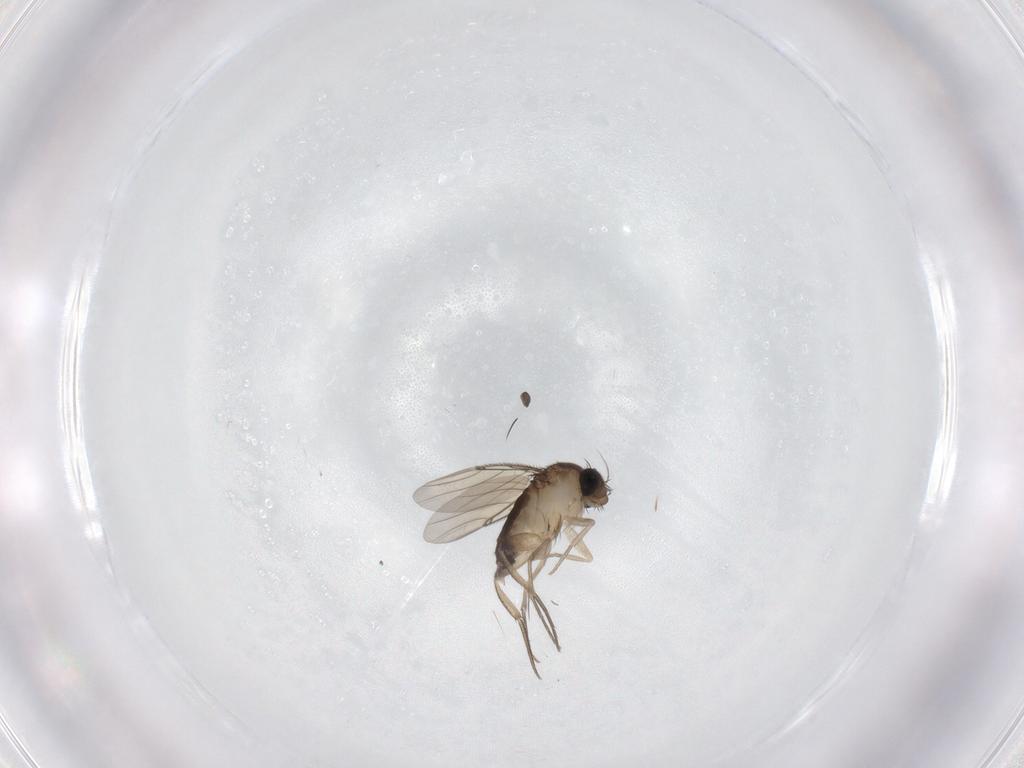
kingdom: Animalia
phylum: Arthropoda
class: Insecta
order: Diptera
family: Phoridae
